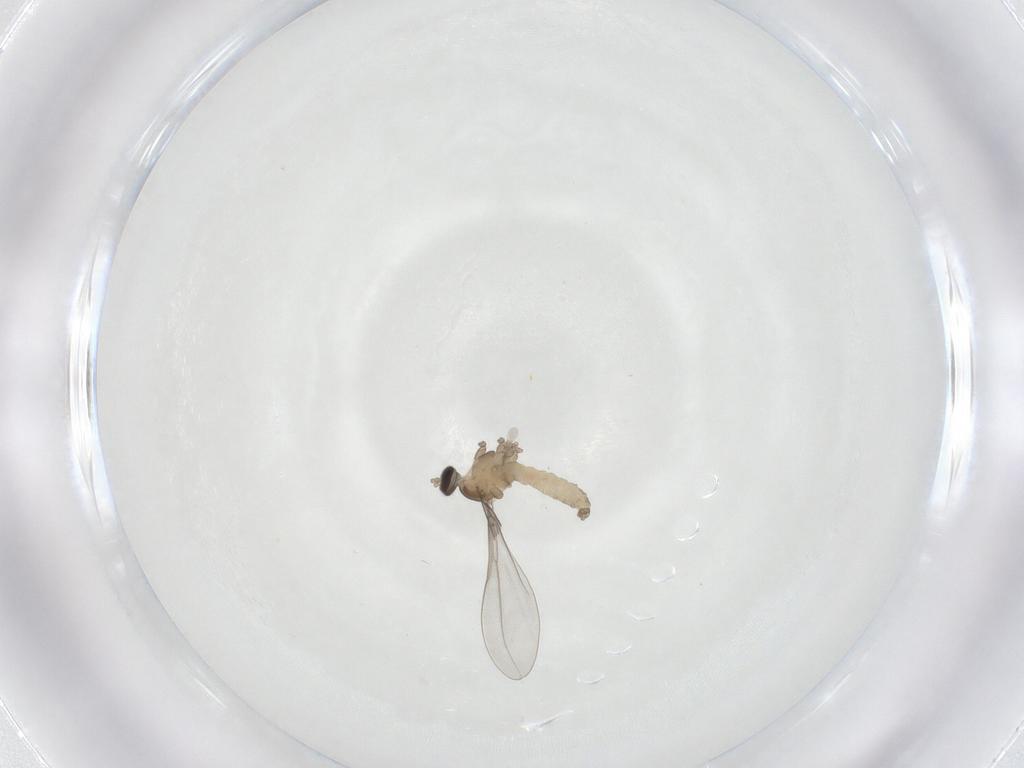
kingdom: Animalia
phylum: Arthropoda
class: Insecta
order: Diptera
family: Cecidomyiidae
